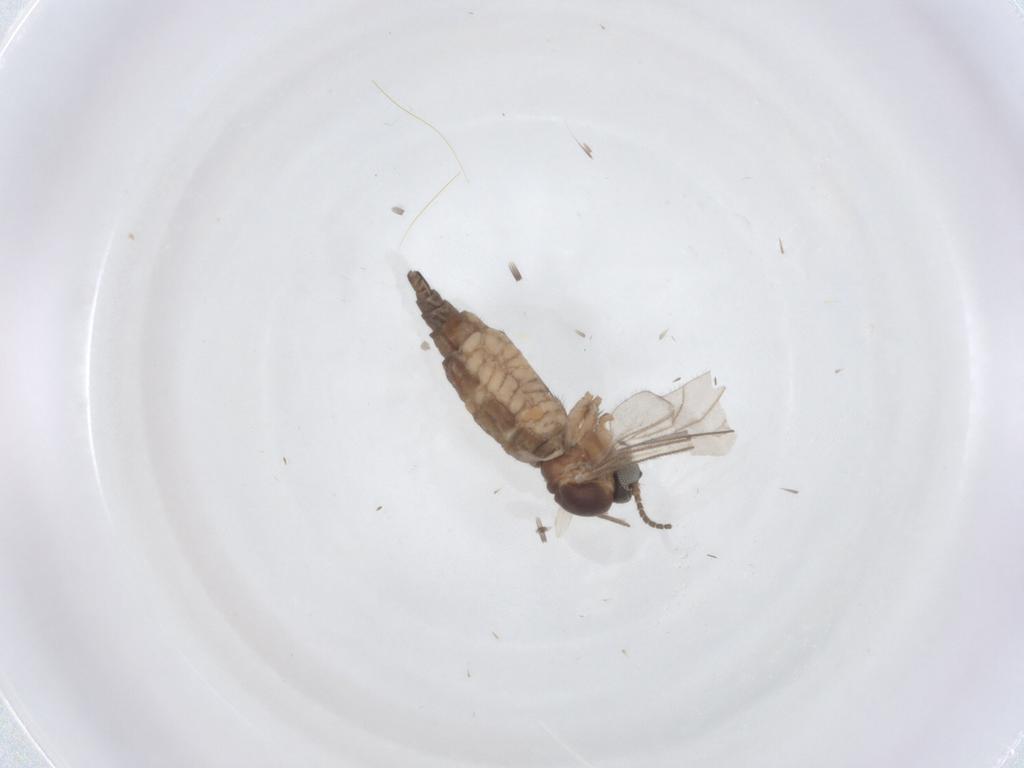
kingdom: Animalia
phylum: Arthropoda
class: Insecta
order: Diptera
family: Sciaridae
